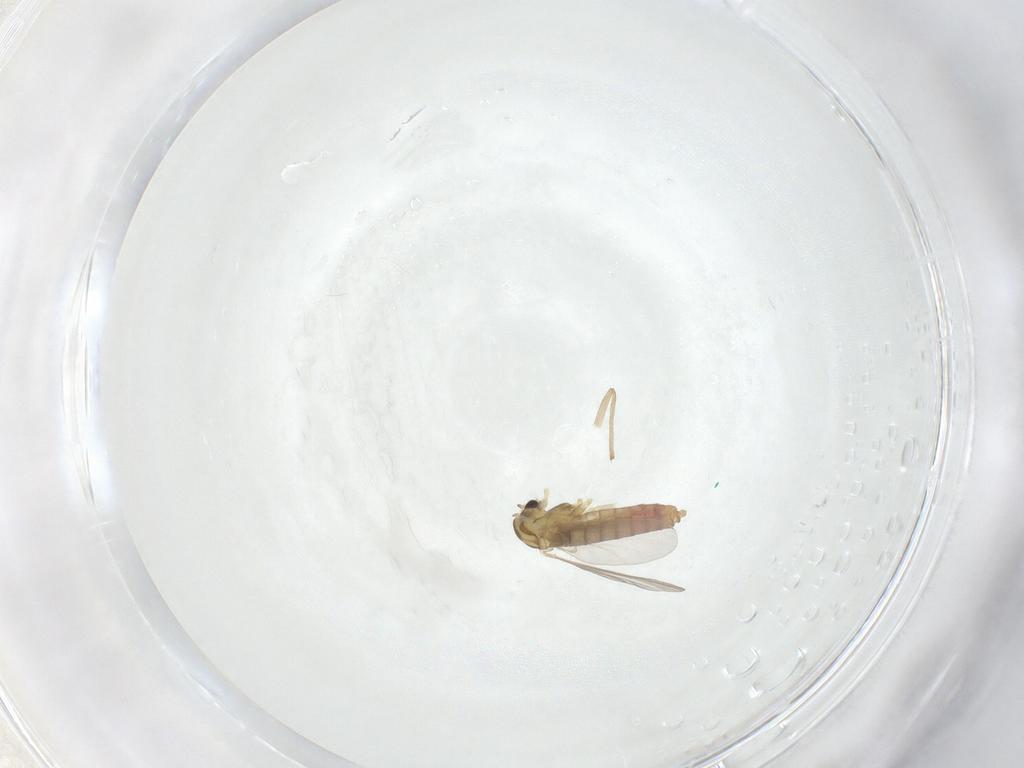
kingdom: Animalia
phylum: Arthropoda
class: Insecta
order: Diptera
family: Chironomidae
